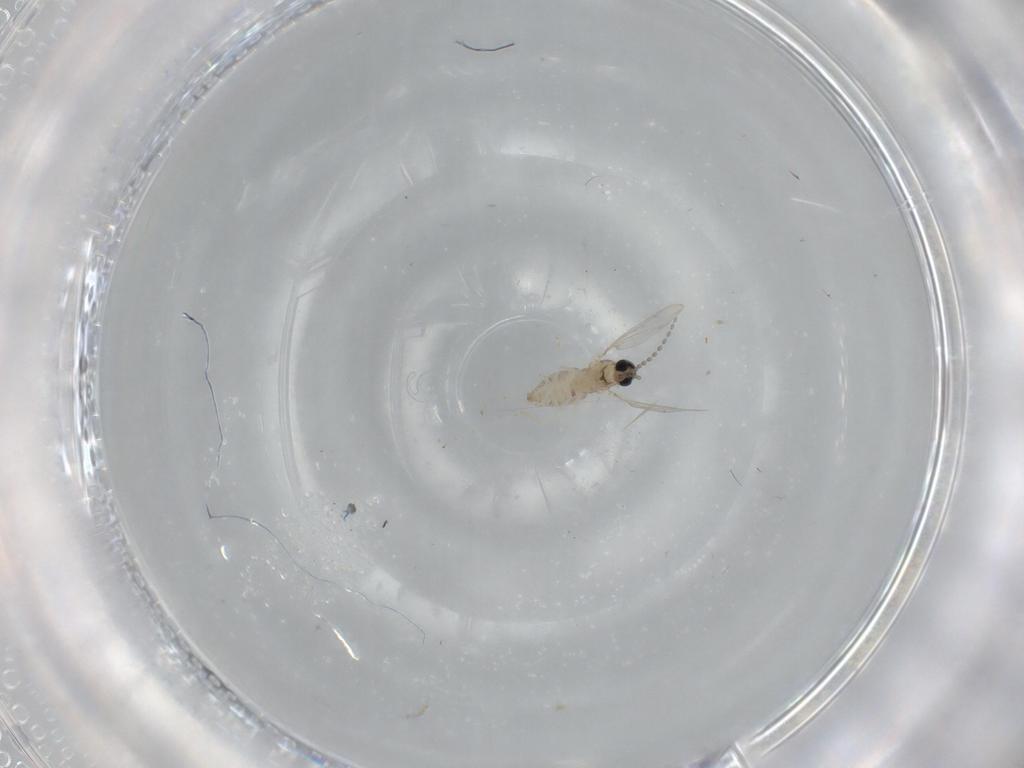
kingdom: Animalia
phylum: Arthropoda
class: Insecta
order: Diptera
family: Cecidomyiidae
